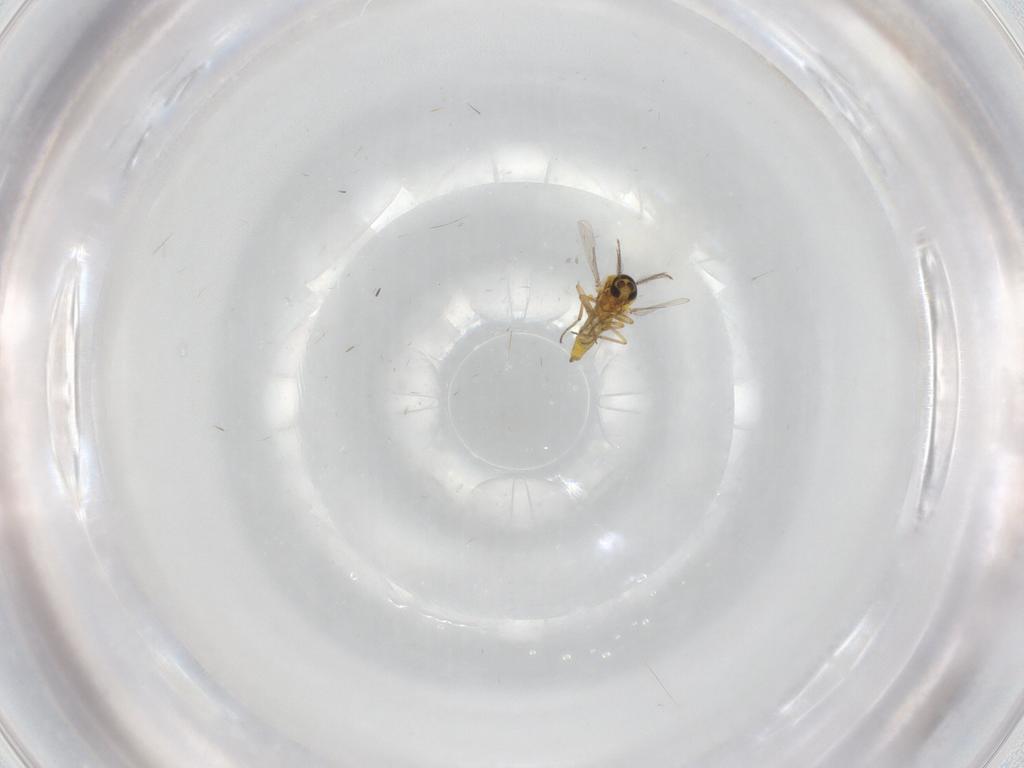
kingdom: Animalia
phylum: Arthropoda
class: Insecta
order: Diptera
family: Ceratopogonidae
